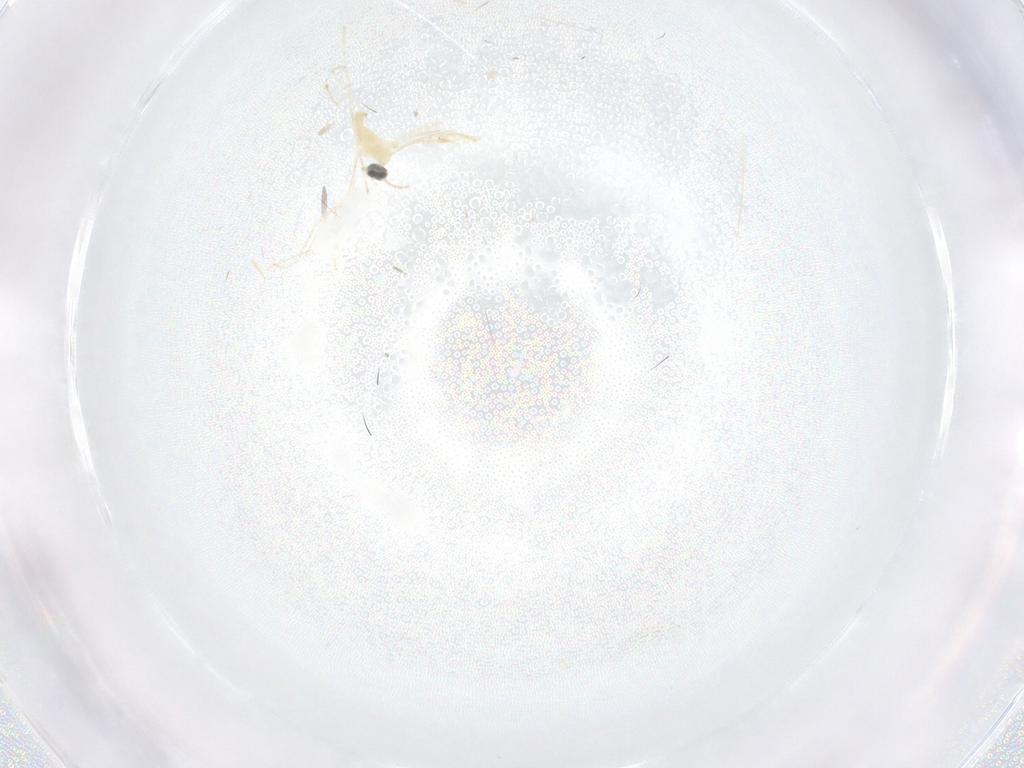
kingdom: Animalia
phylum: Arthropoda
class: Insecta
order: Diptera
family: Cecidomyiidae
